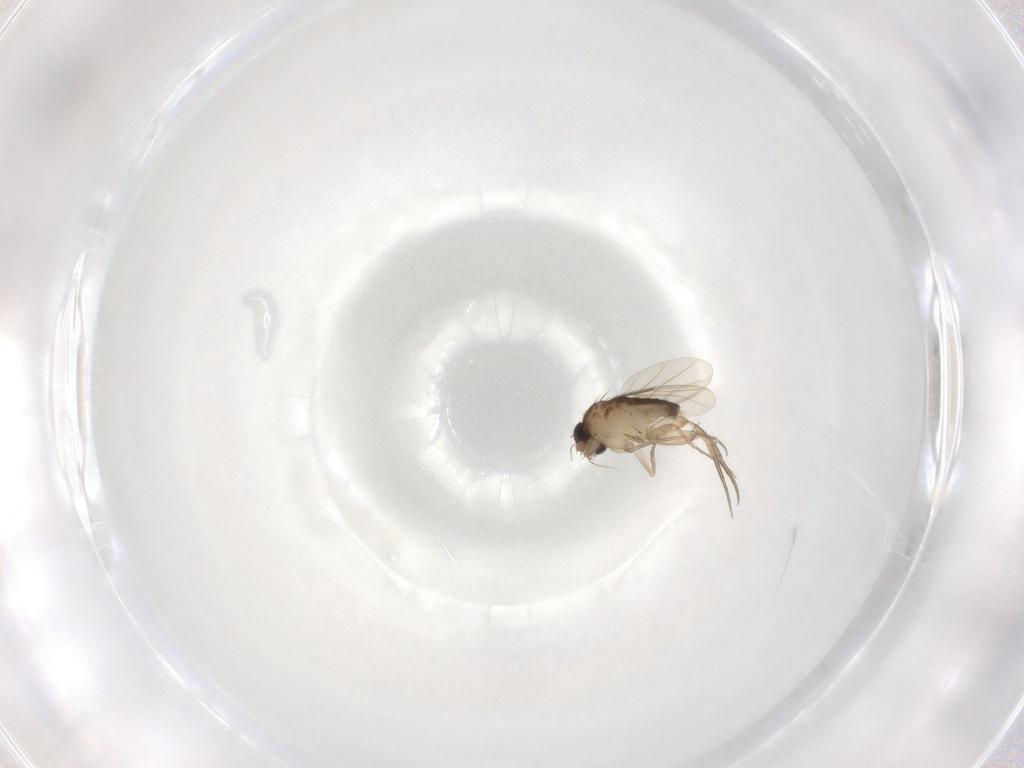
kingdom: Animalia
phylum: Arthropoda
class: Insecta
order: Diptera
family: Phoridae
